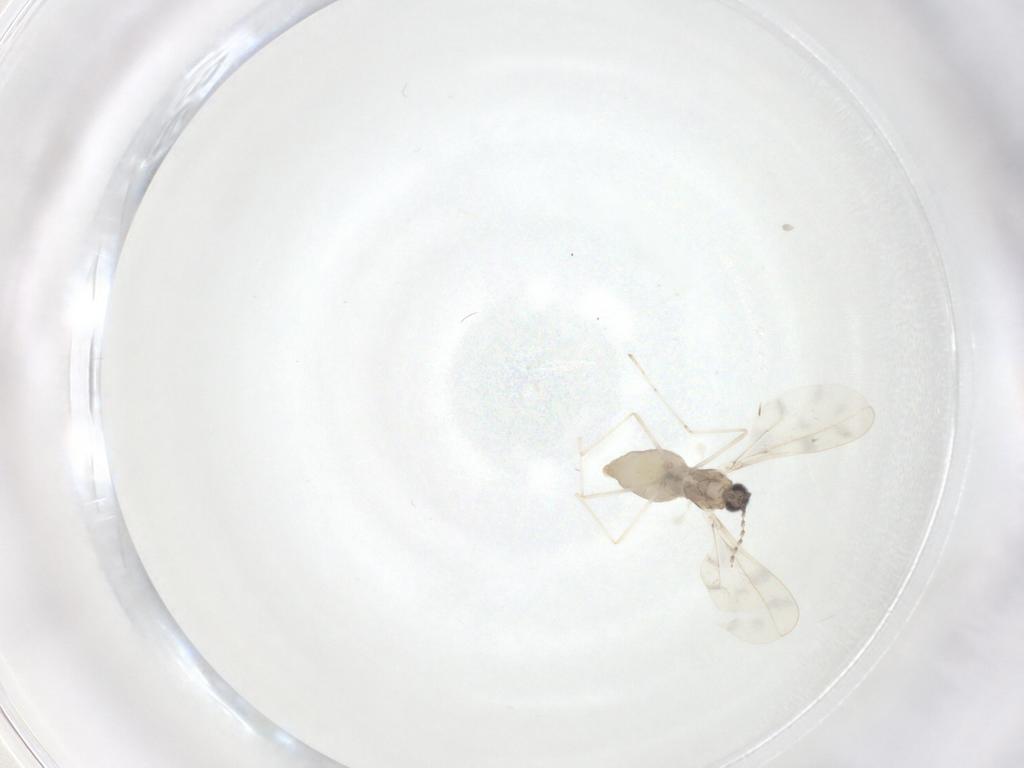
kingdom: Animalia
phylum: Arthropoda
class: Insecta
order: Diptera
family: Cecidomyiidae
